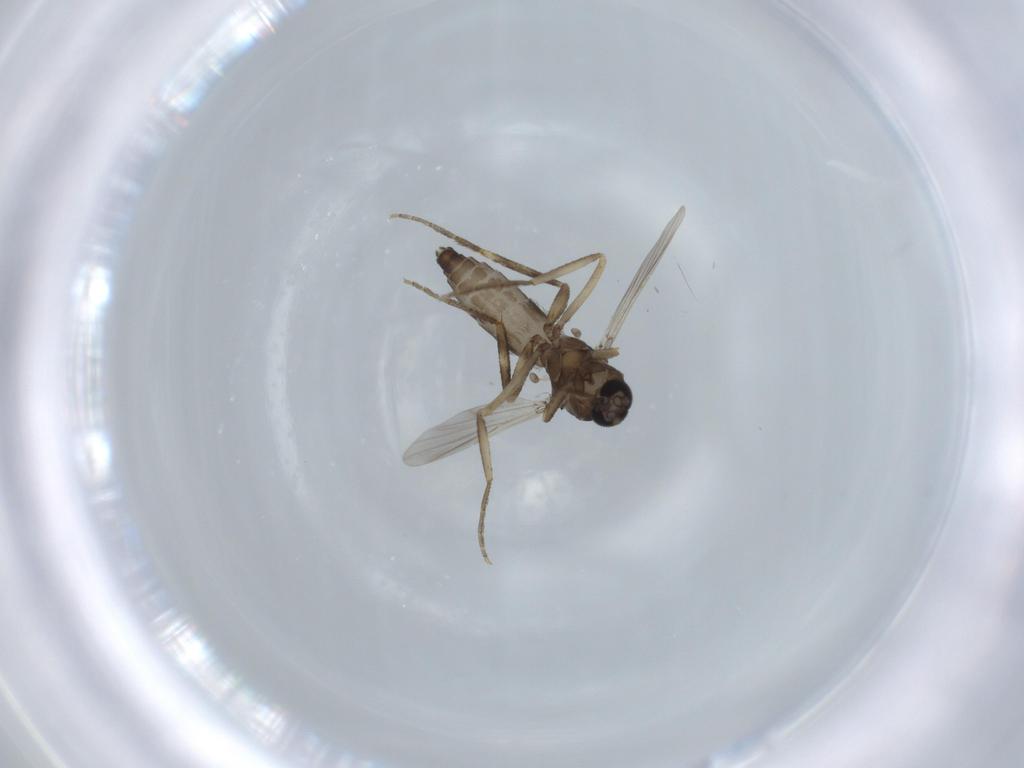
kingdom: Animalia
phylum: Arthropoda
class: Insecta
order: Diptera
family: Ceratopogonidae
